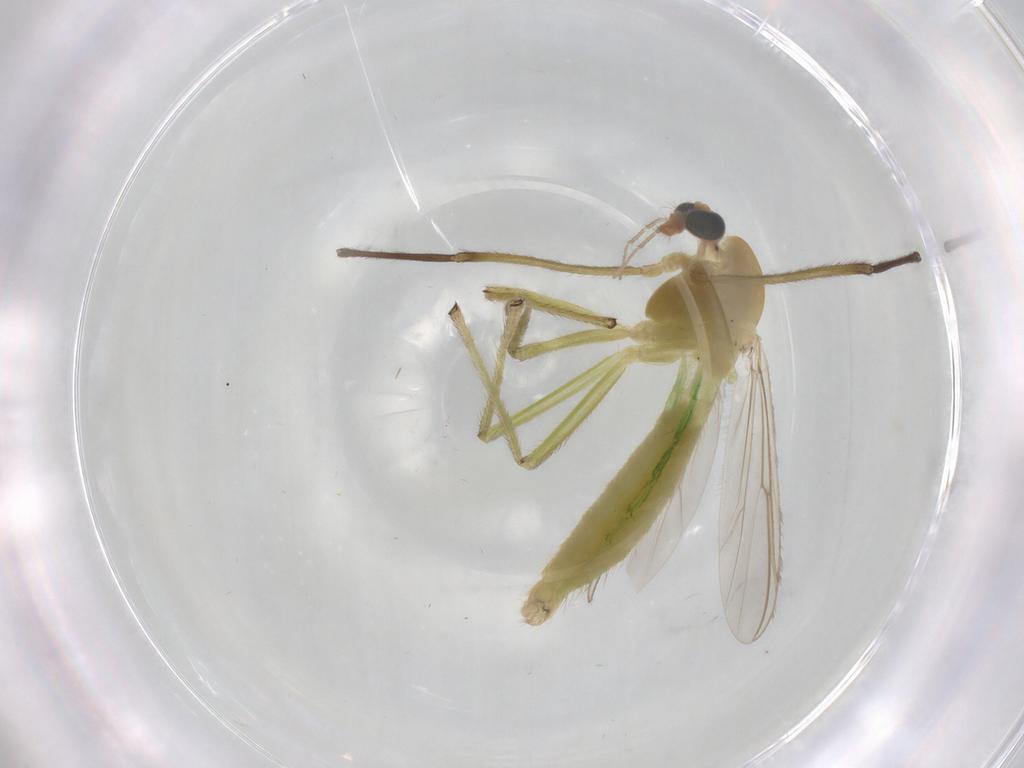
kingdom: Animalia
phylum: Arthropoda
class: Insecta
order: Diptera
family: Chironomidae
